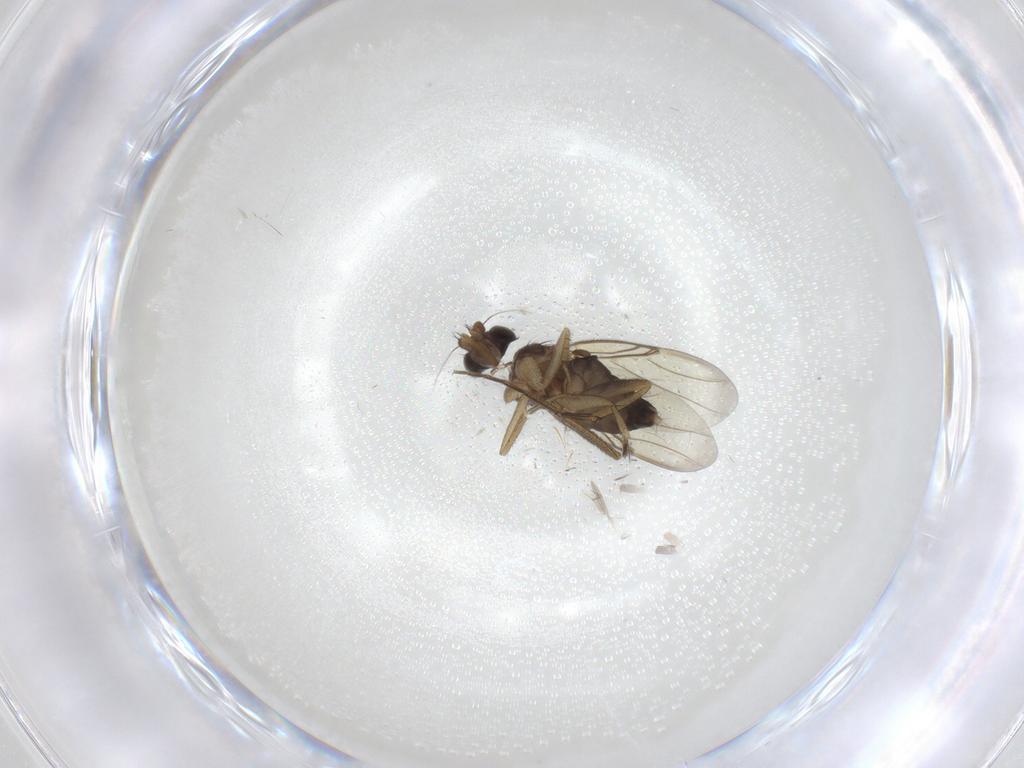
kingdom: Animalia
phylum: Arthropoda
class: Insecta
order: Diptera
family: Phoridae
